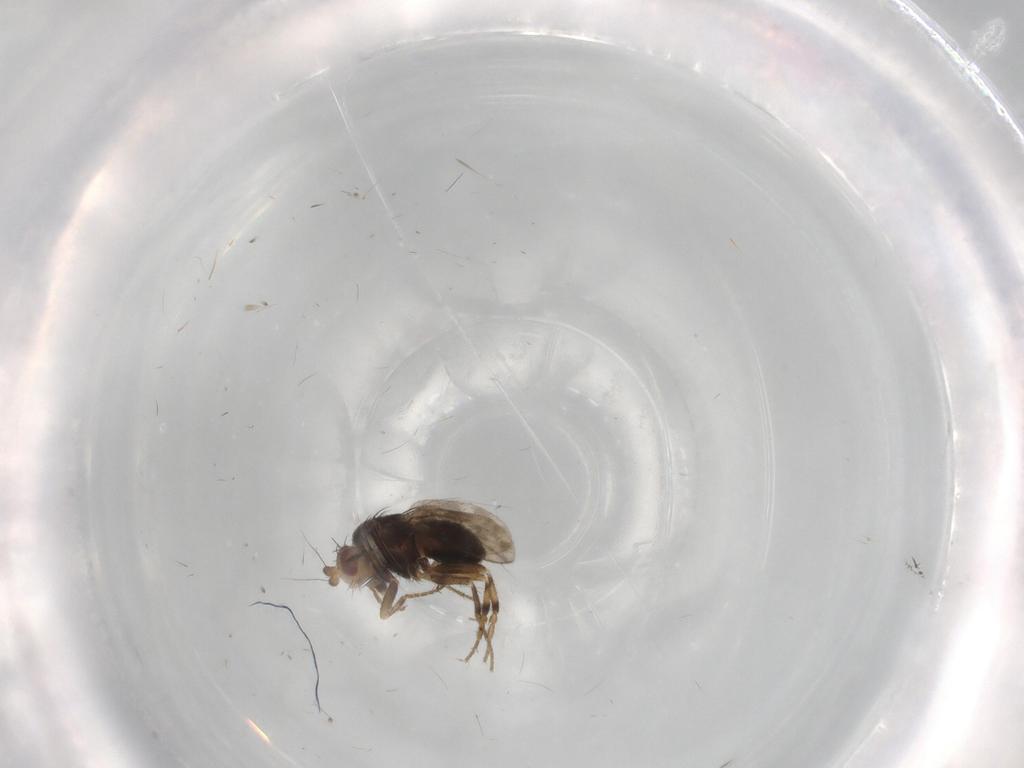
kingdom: Animalia
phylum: Arthropoda
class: Insecta
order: Diptera
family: Sphaeroceridae
